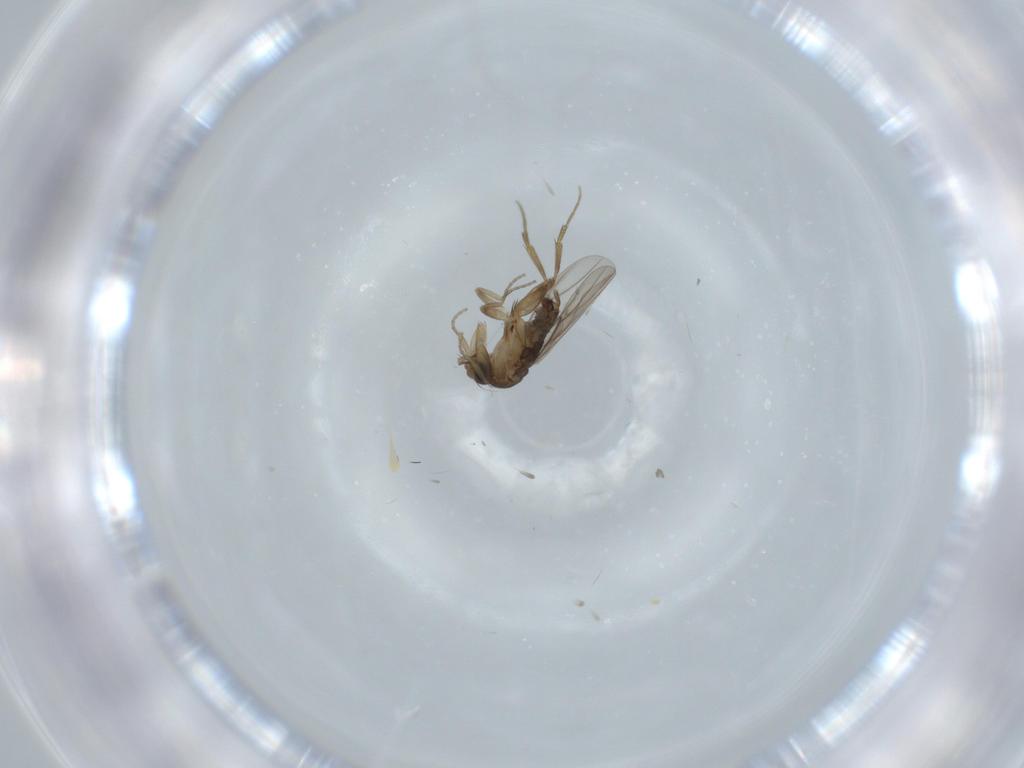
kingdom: Animalia
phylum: Arthropoda
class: Insecta
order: Diptera
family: Phoridae
